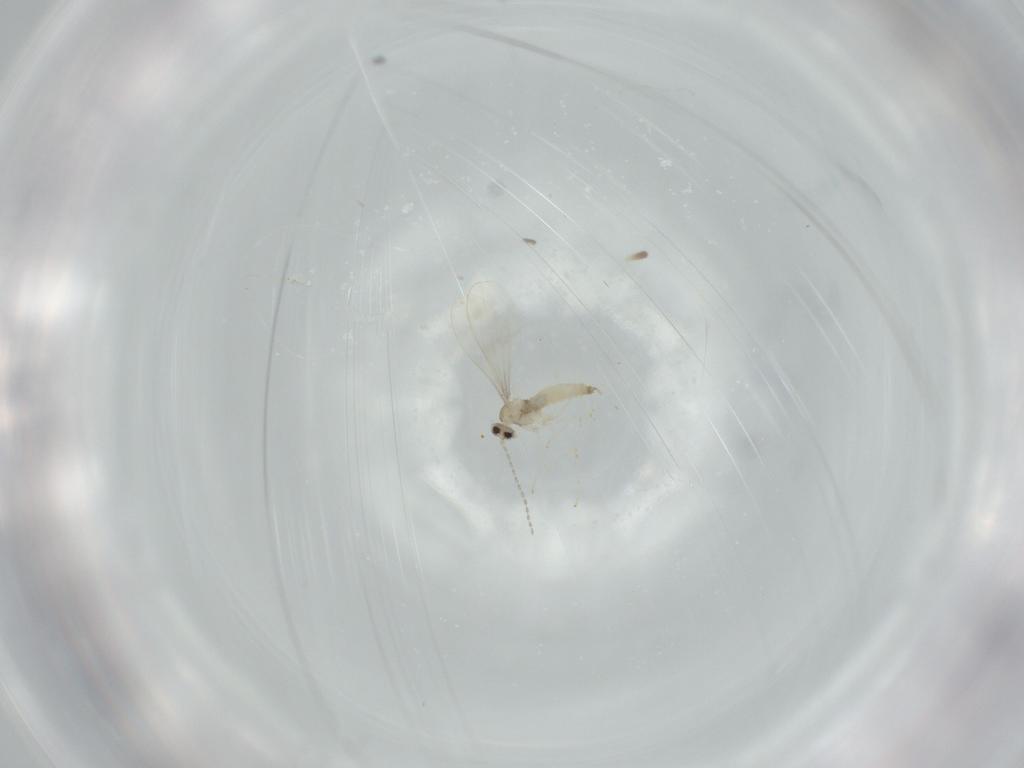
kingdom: Animalia
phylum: Arthropoda
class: Insecta
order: Diptera
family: Cecidomyiidae
